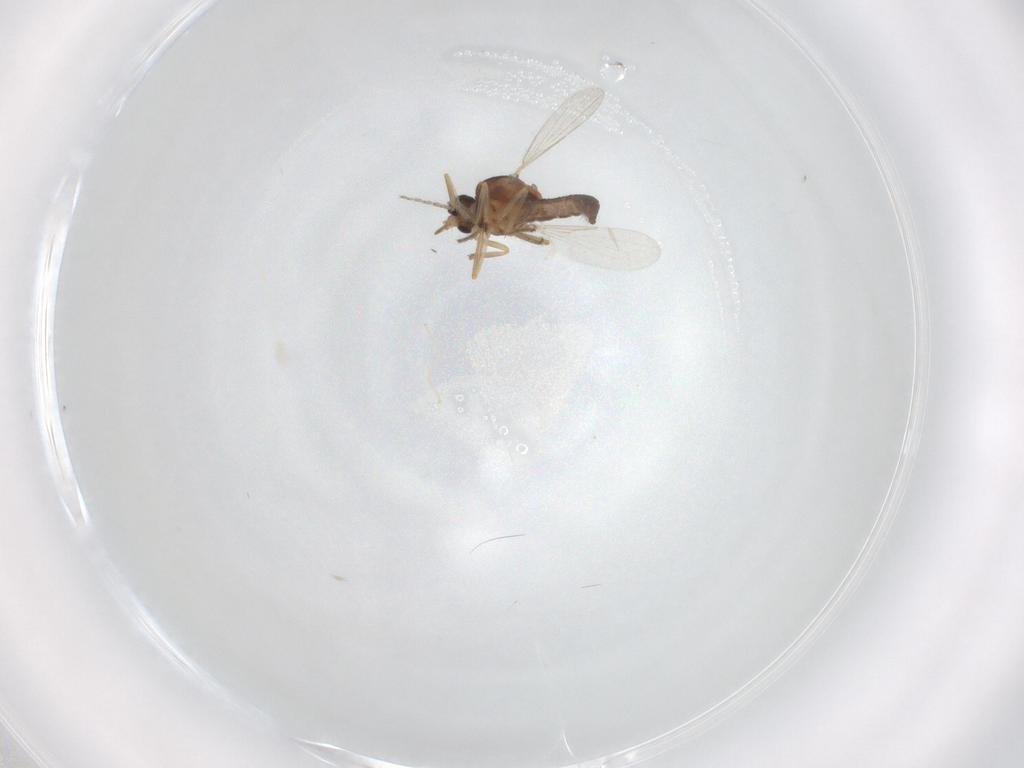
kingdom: Animalia
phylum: Arthropoda
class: Insecta
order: Diptera
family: Ceratopogonidae
